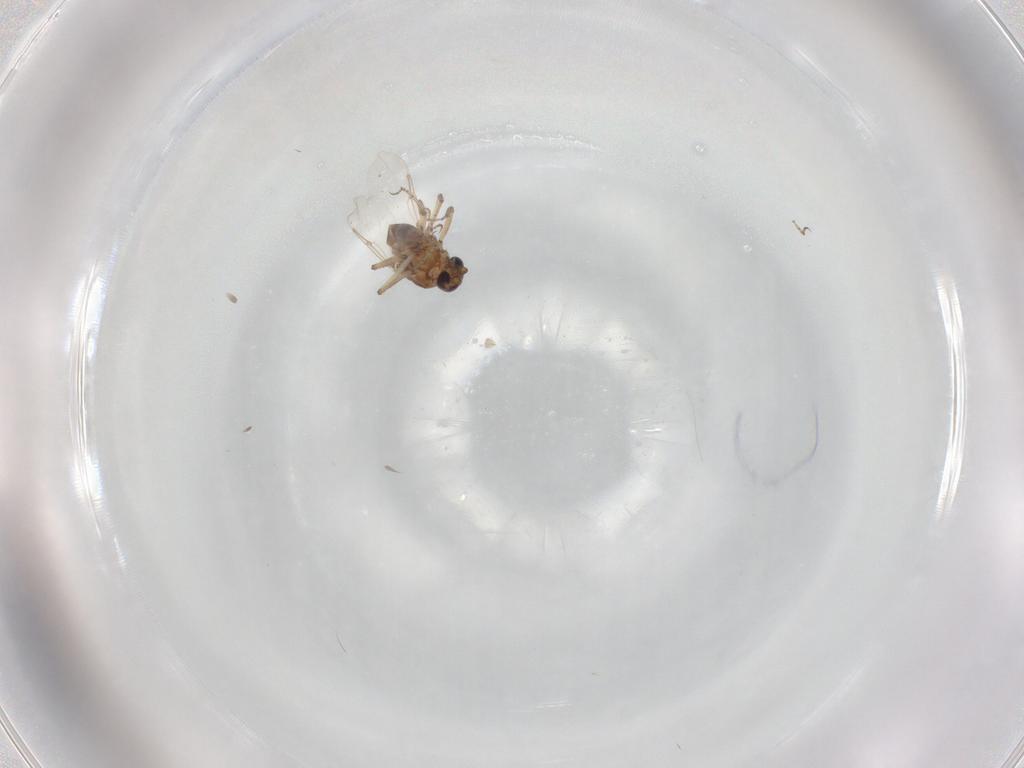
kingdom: Animalia
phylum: Arthropoda
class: Insecta
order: Diptera
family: Ceratopogonidae
